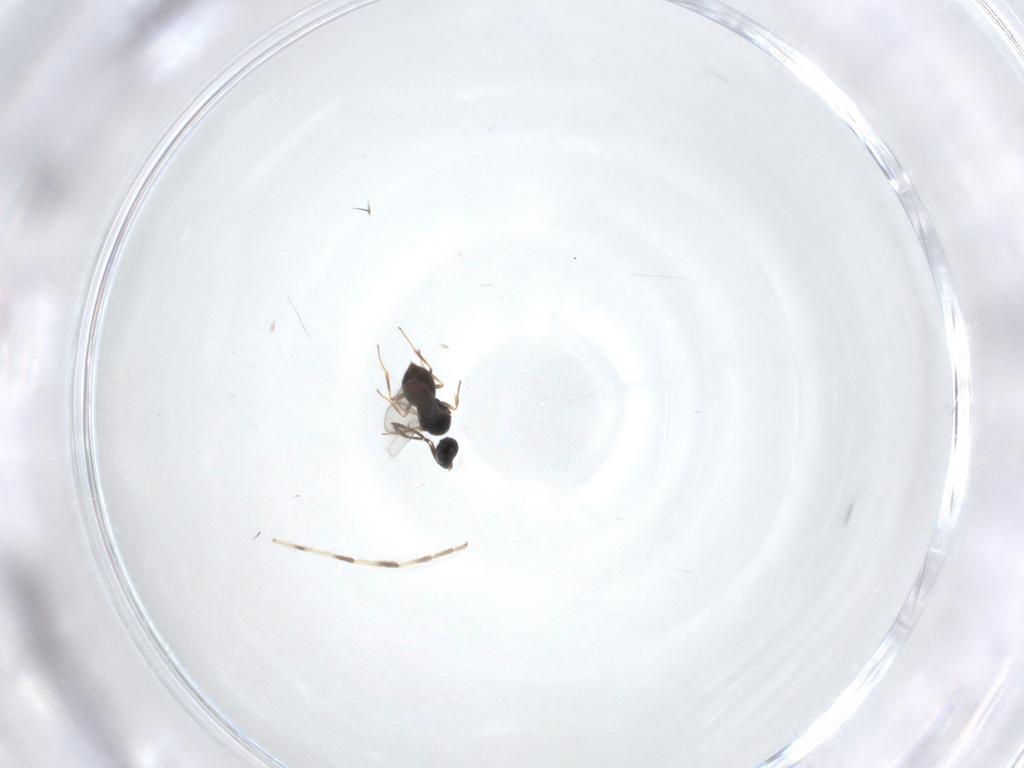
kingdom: Animalia
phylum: Arthropoda
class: Insecta
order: Hymenoptera
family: Scelionidae
